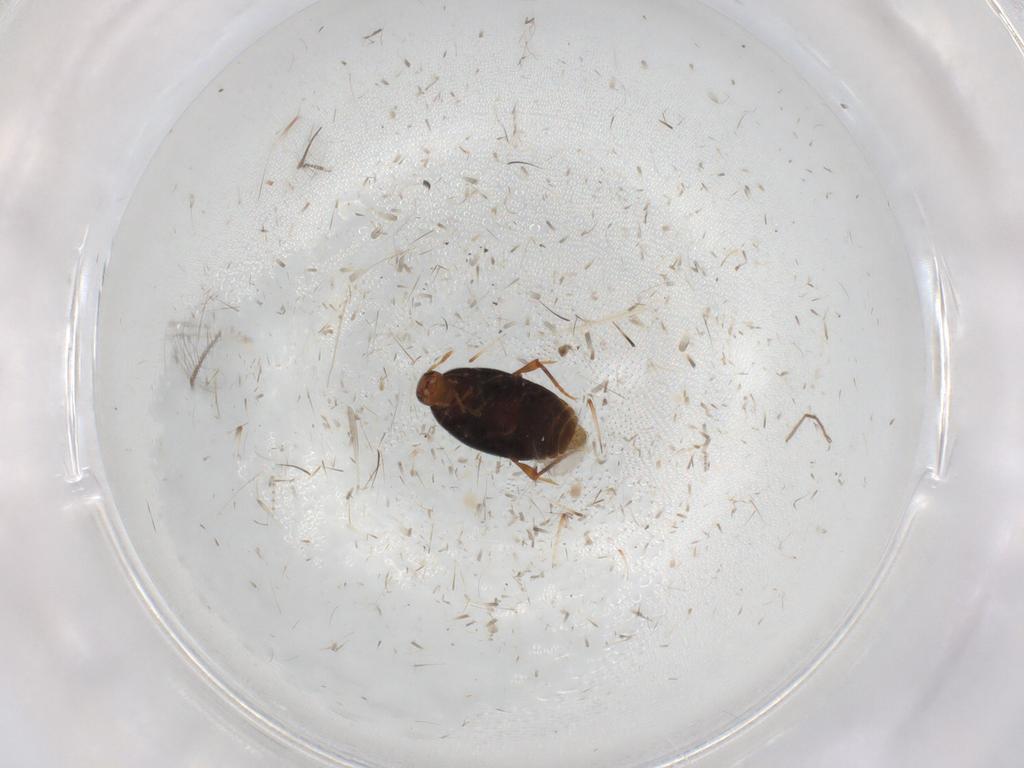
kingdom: Animalia
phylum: Arthropoda
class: Insecta
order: Coleoptera
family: Melandryidae
